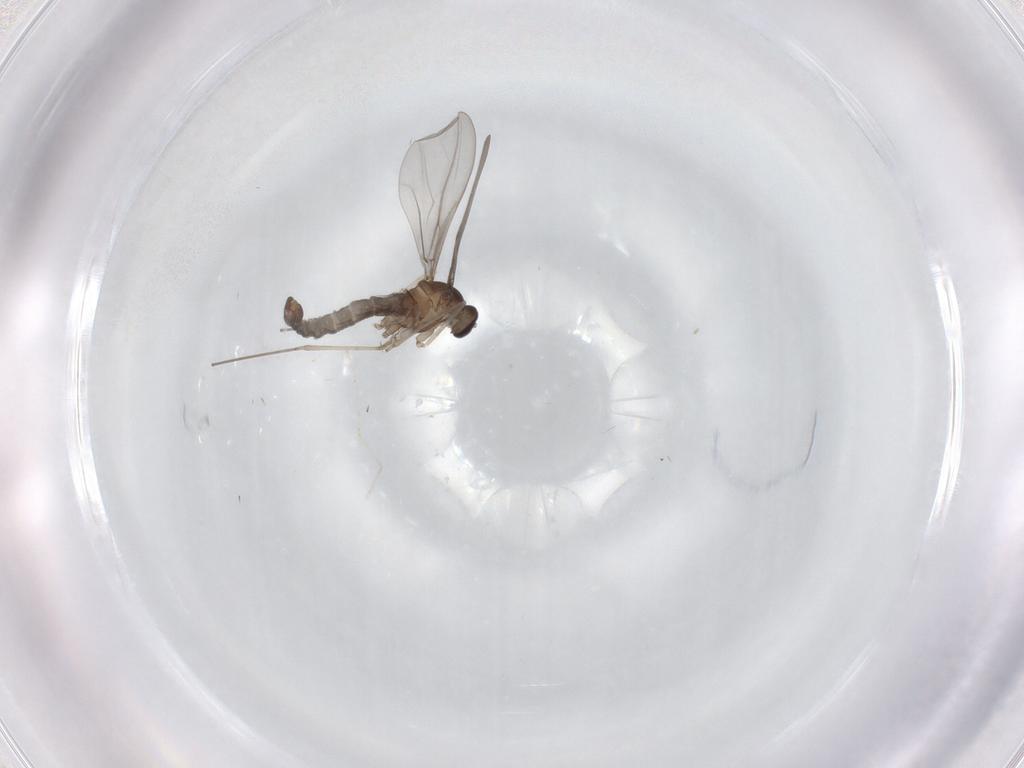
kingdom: Animalia
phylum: Arthropoda
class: Insecta
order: Diptera
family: Cecidomyiidae
